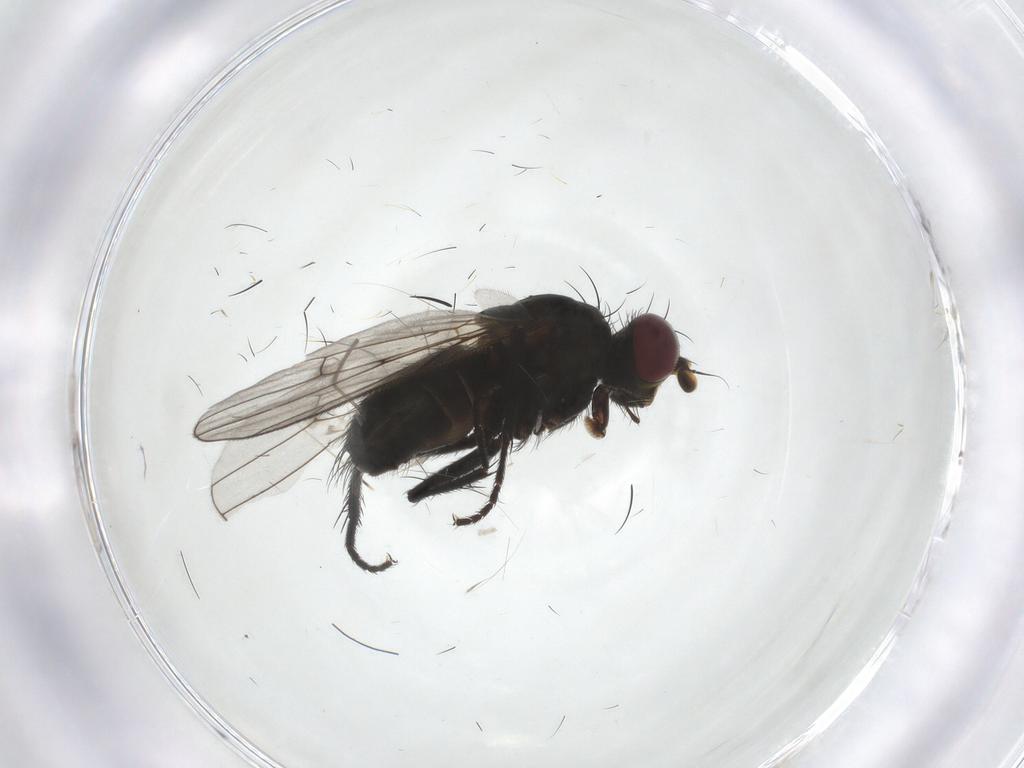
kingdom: Animalia
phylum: Arthropoda
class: Insecta
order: Diptera
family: Muscidae
